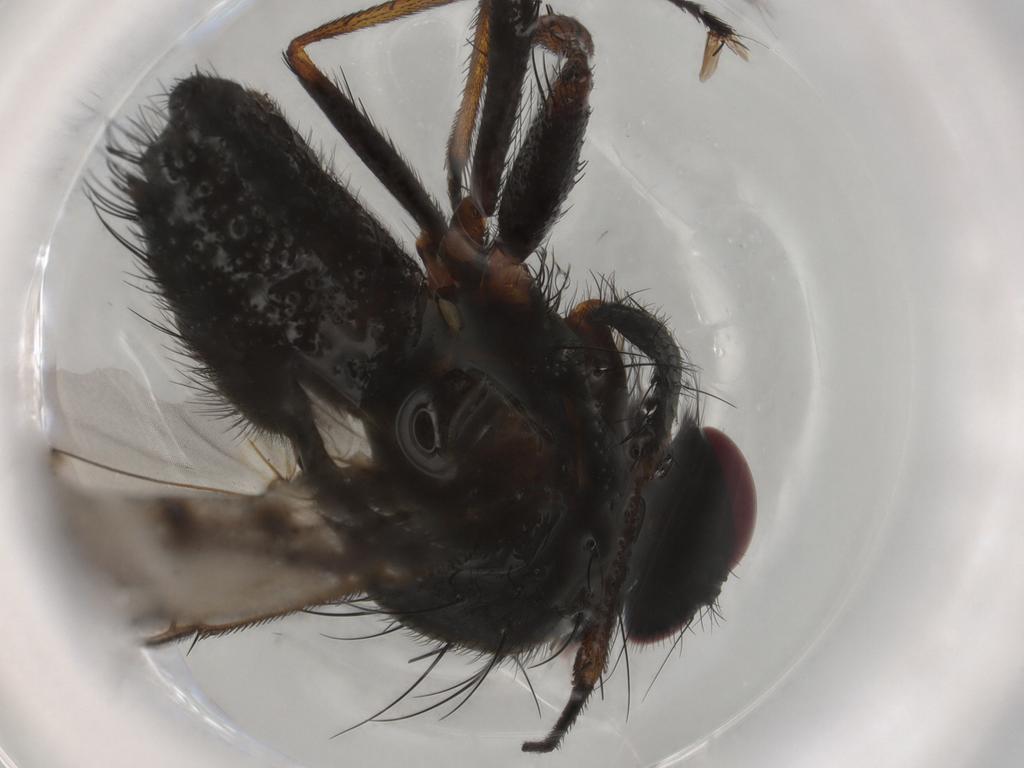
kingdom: Animalia
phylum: Arthropoda
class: Insecta
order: Diptera
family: Muscidae
